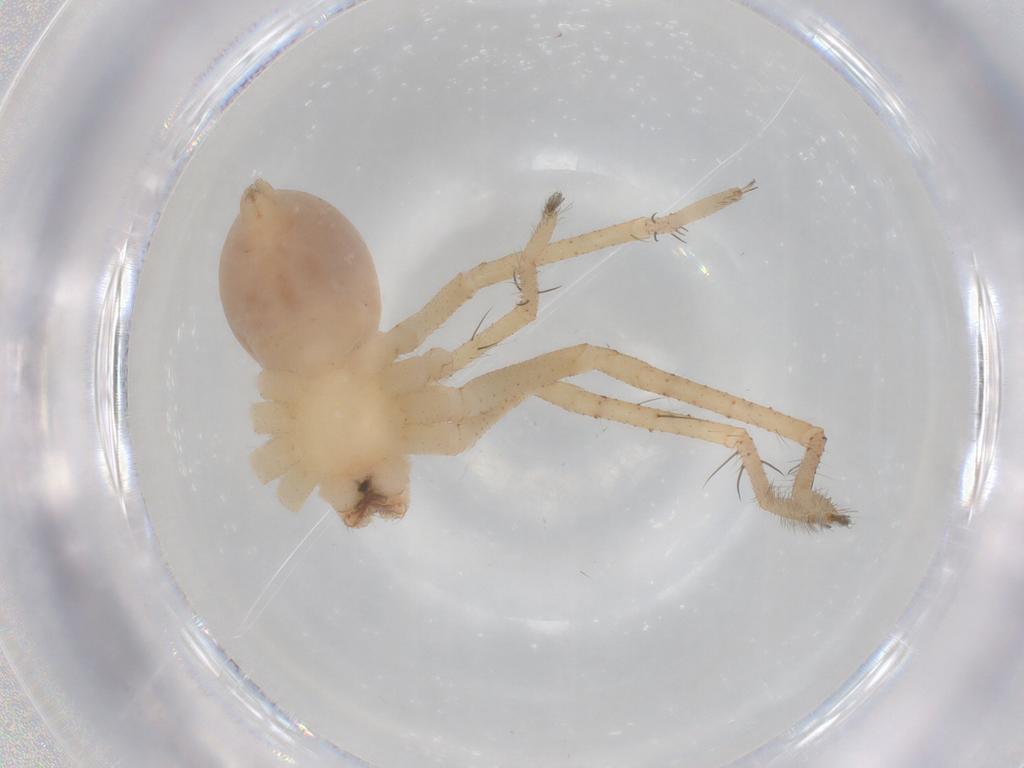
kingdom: Animalia
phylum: Arthropoda
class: Arachnida
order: Araneae
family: Sparassidae
